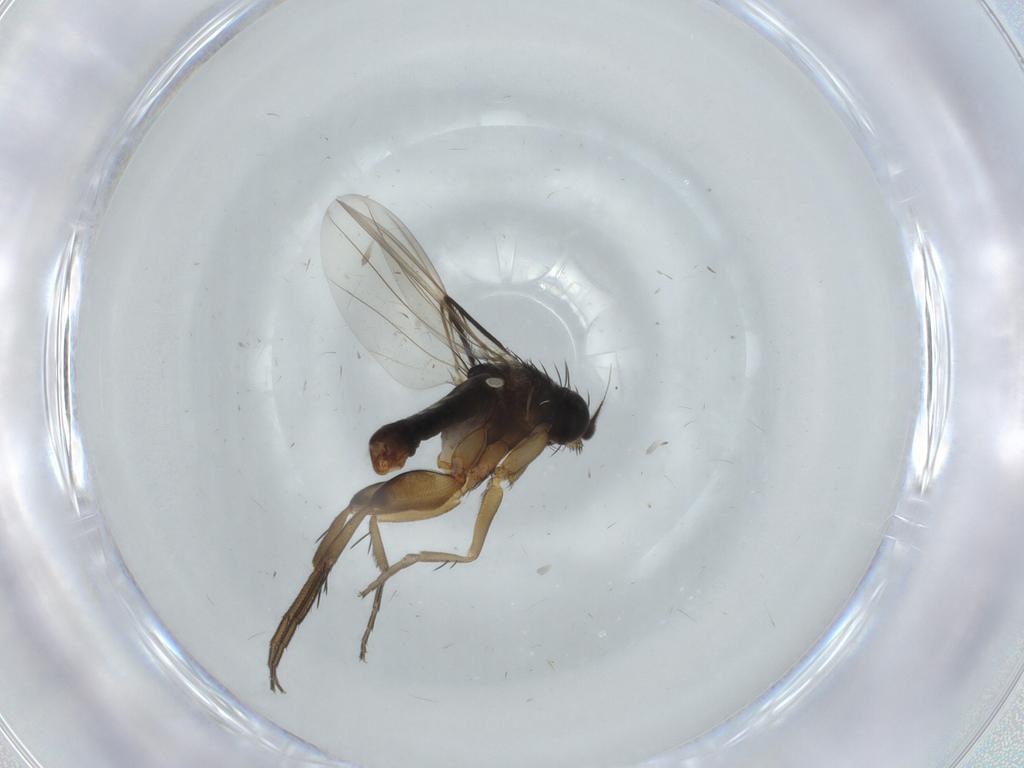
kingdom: Animalia
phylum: Arthropoda
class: Insecta
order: Diptera
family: Phoridae
